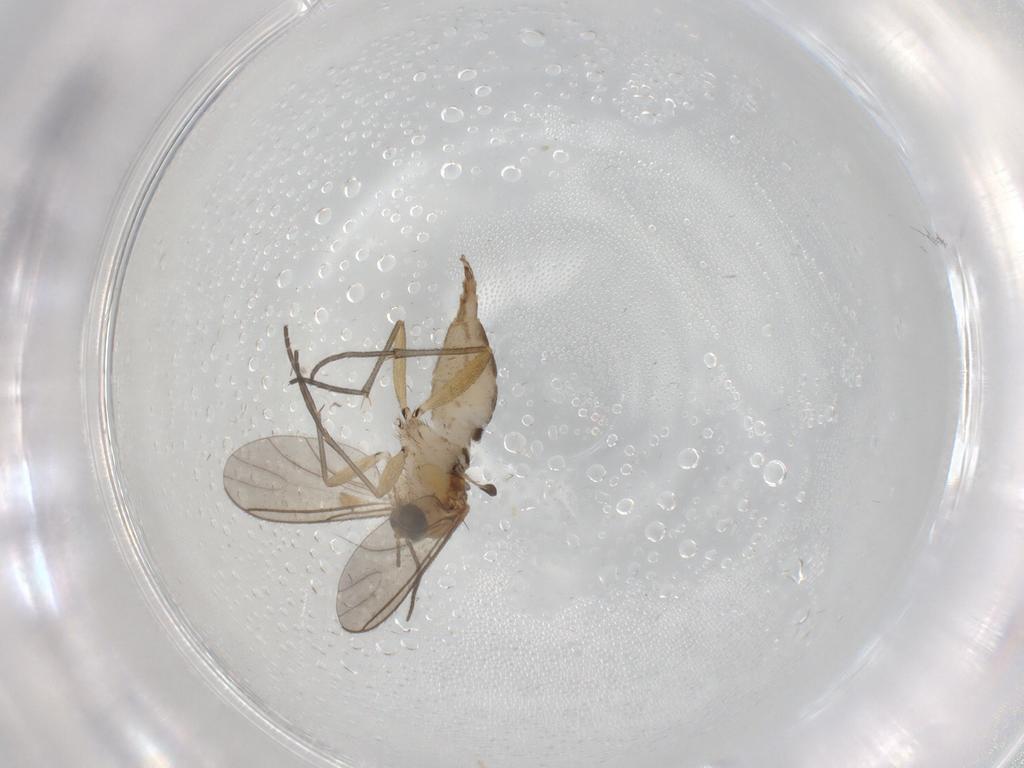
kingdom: Animalia
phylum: Arthropoda
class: Insecta
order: Diptera
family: Sciaridae
